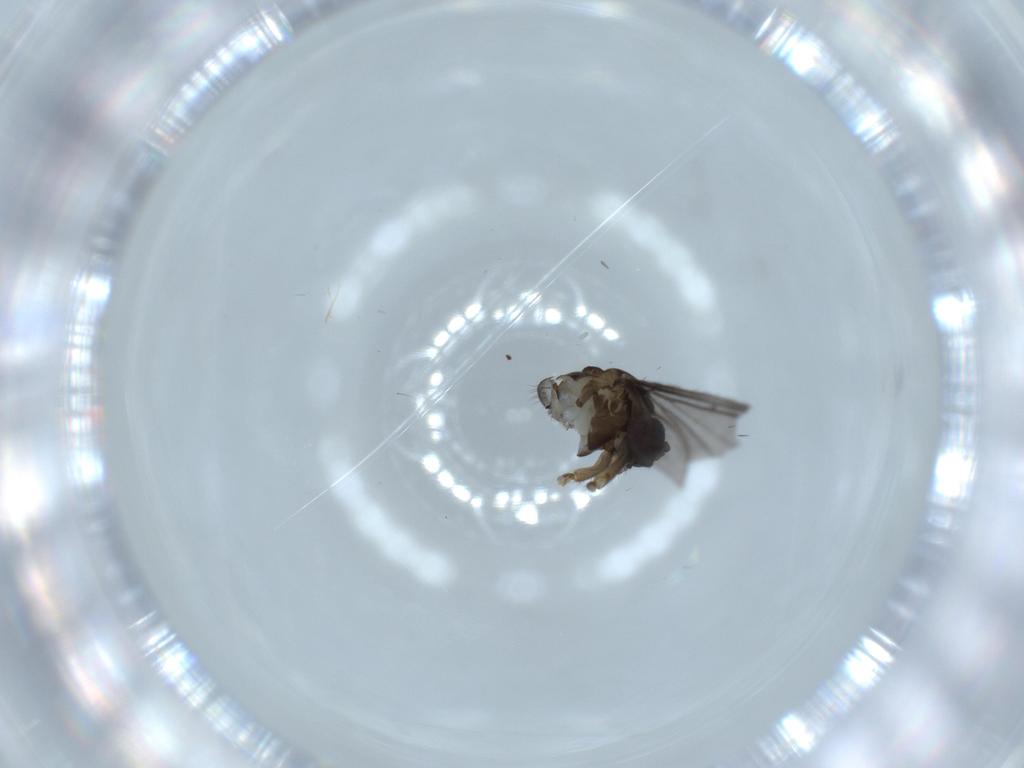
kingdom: Animalia
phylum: Arthropoda
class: Insecta
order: Diptera
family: Sciaridae
